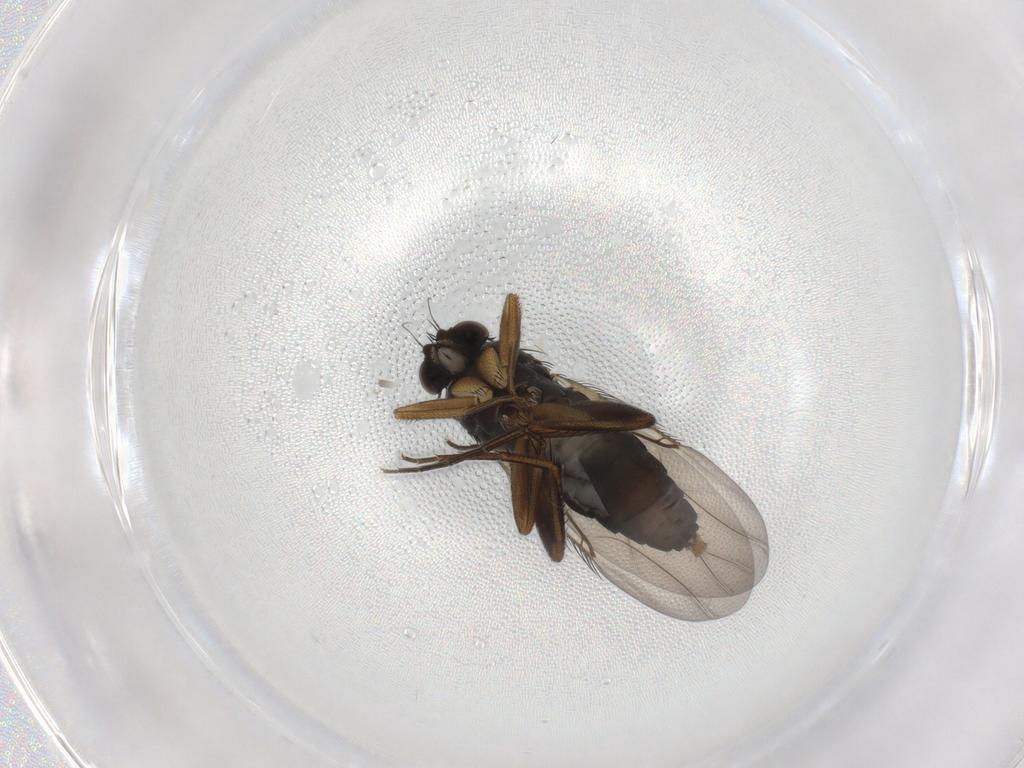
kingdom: Animalia
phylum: Arthropoda
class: Insecta
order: Diptera
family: Phoridae
